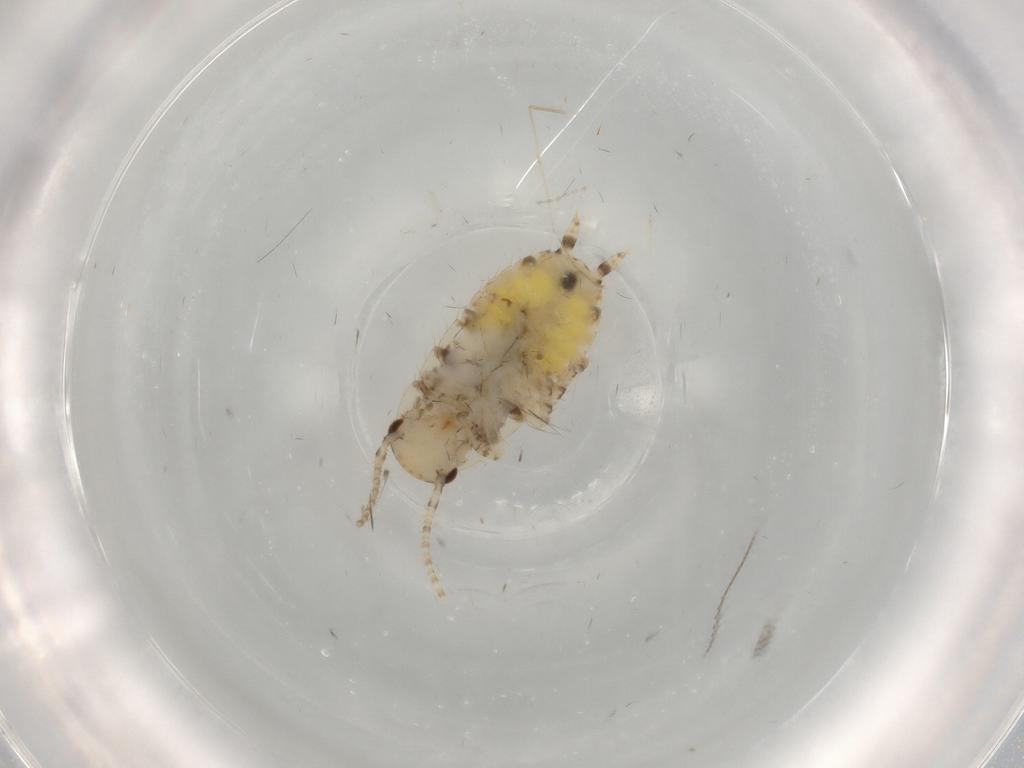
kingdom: Animalia
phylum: Arthropoda
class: Insecta
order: Blattodea
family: Ectobiidae
